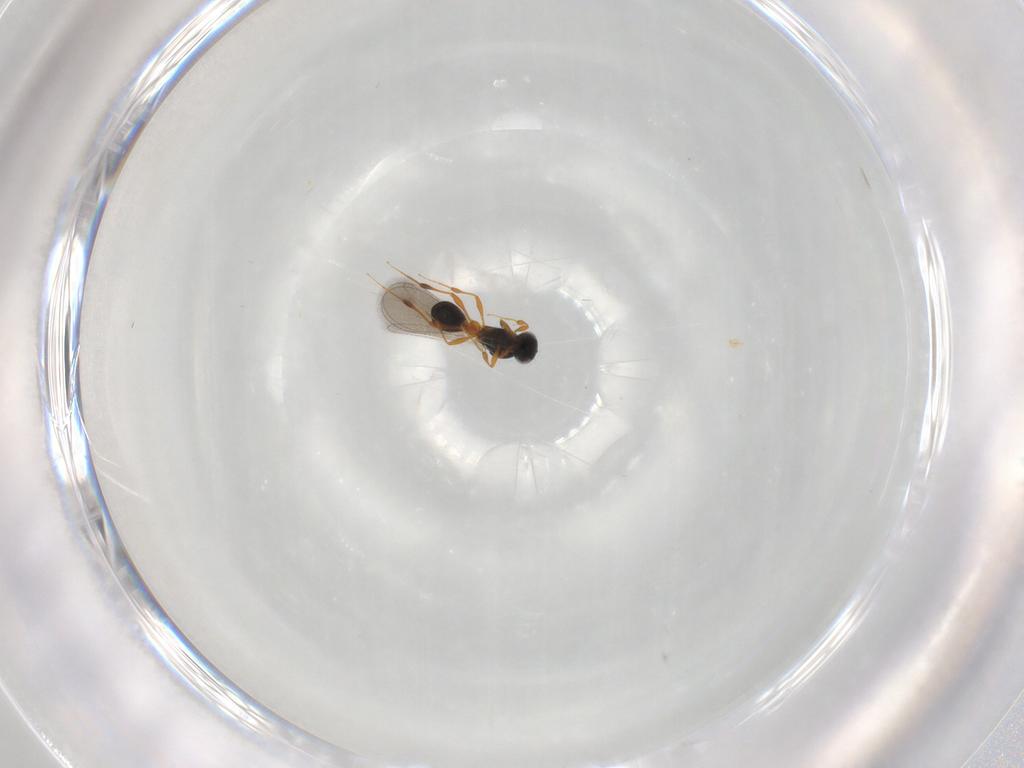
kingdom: Animalia
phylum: Arthropoda
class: Insecta
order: Hymenoptera
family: Platygastridae
